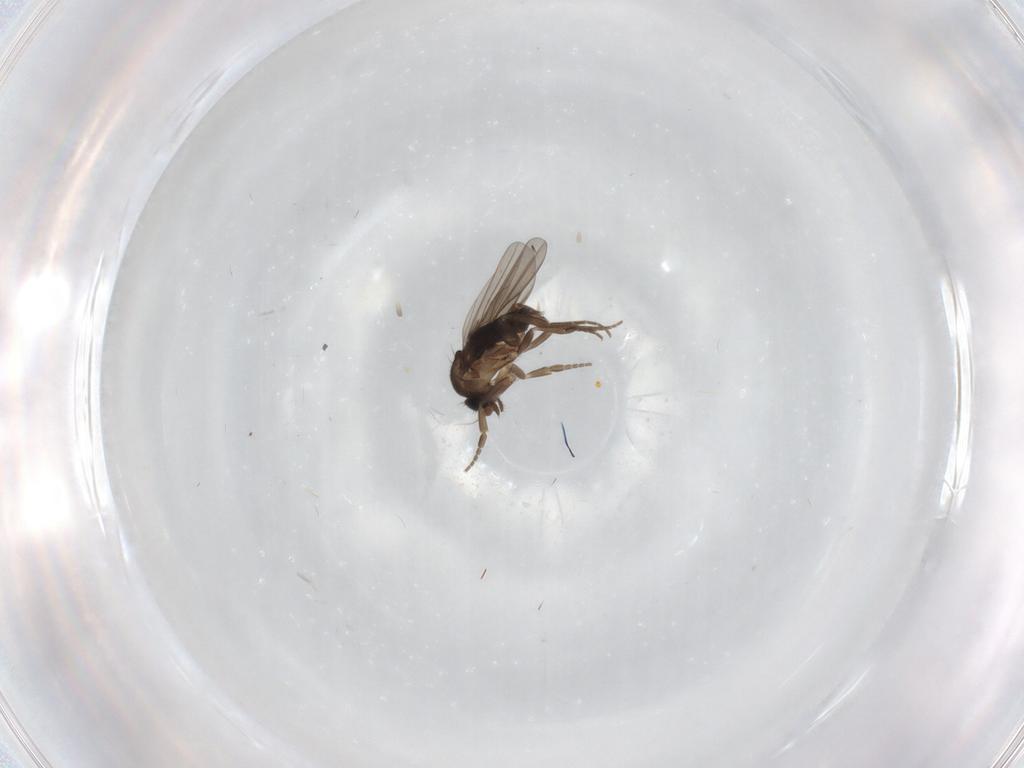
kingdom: Animalia
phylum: Arthropoda
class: Insecta
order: Diptera
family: Phoridae
